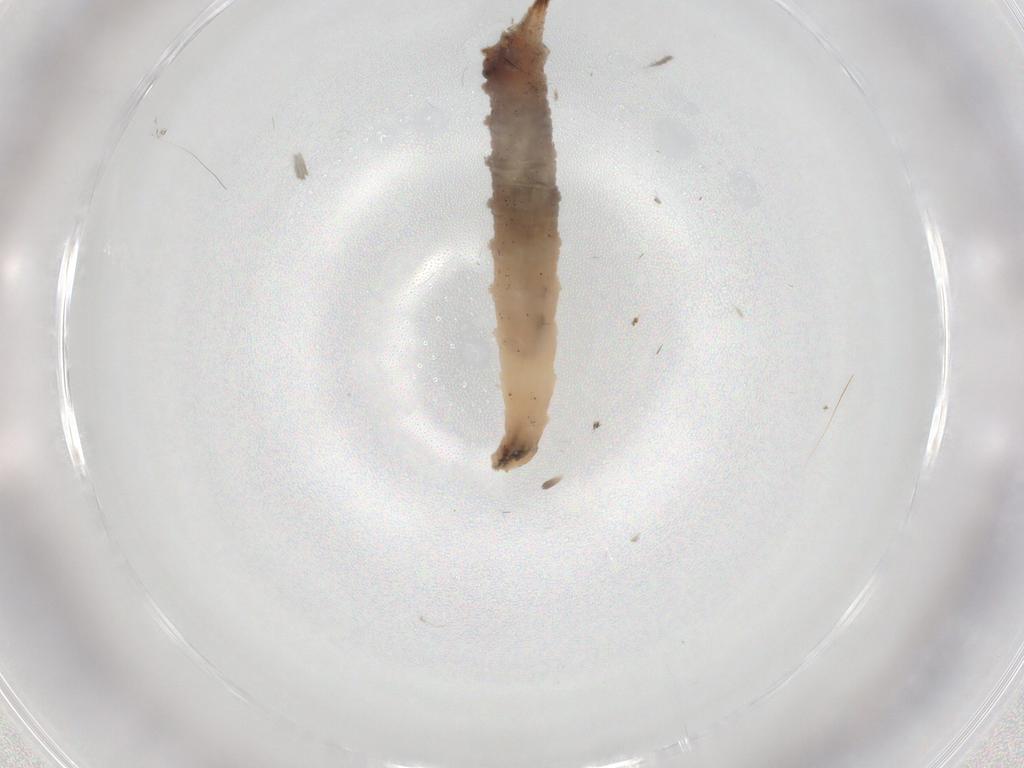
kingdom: Animalia
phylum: Arthropoda
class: Insecta
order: Diptera
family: Drosophilidae
